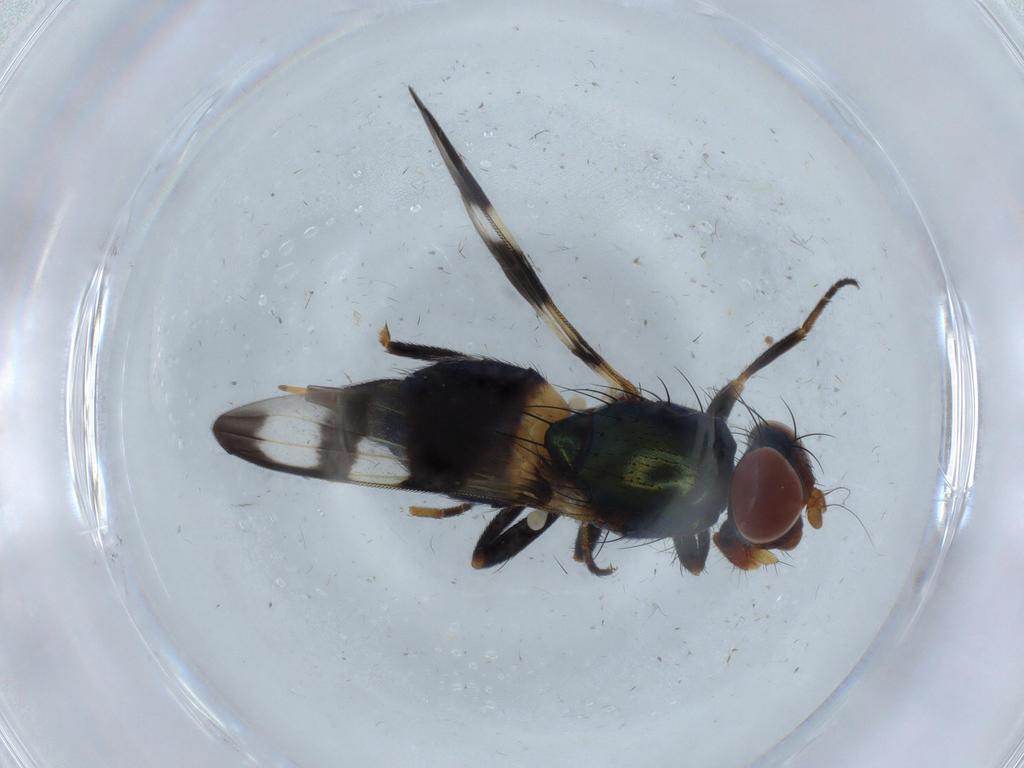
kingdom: Animalia
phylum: Arthropoda
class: Insecta
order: Diptera
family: Ulidiidae
